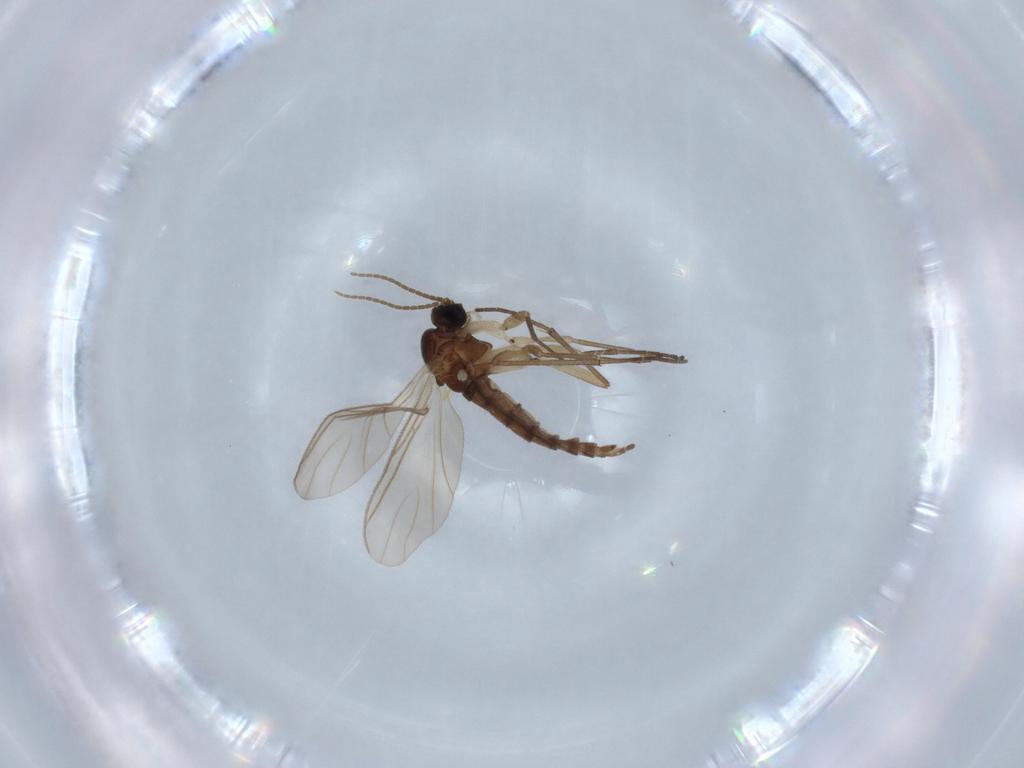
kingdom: Animalia
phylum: Arthropoda
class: Insecta
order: Diptera
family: Sciaridae
